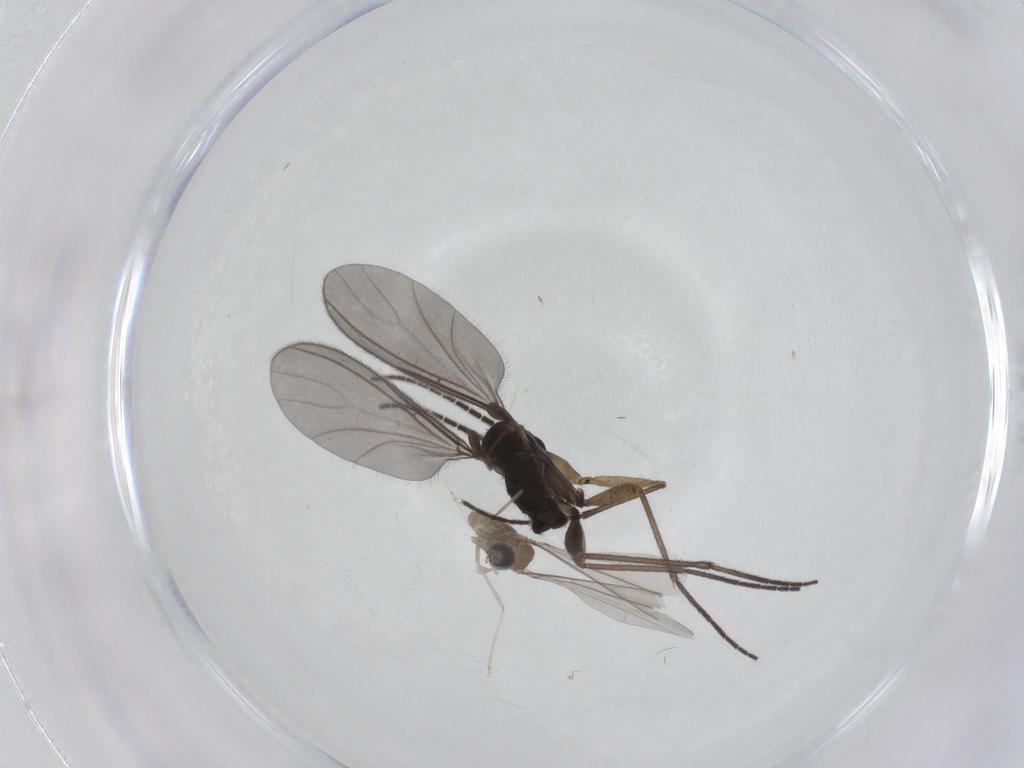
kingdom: Animalia
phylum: Arthropoda
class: Insecta
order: Diptera
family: Sciaridae
